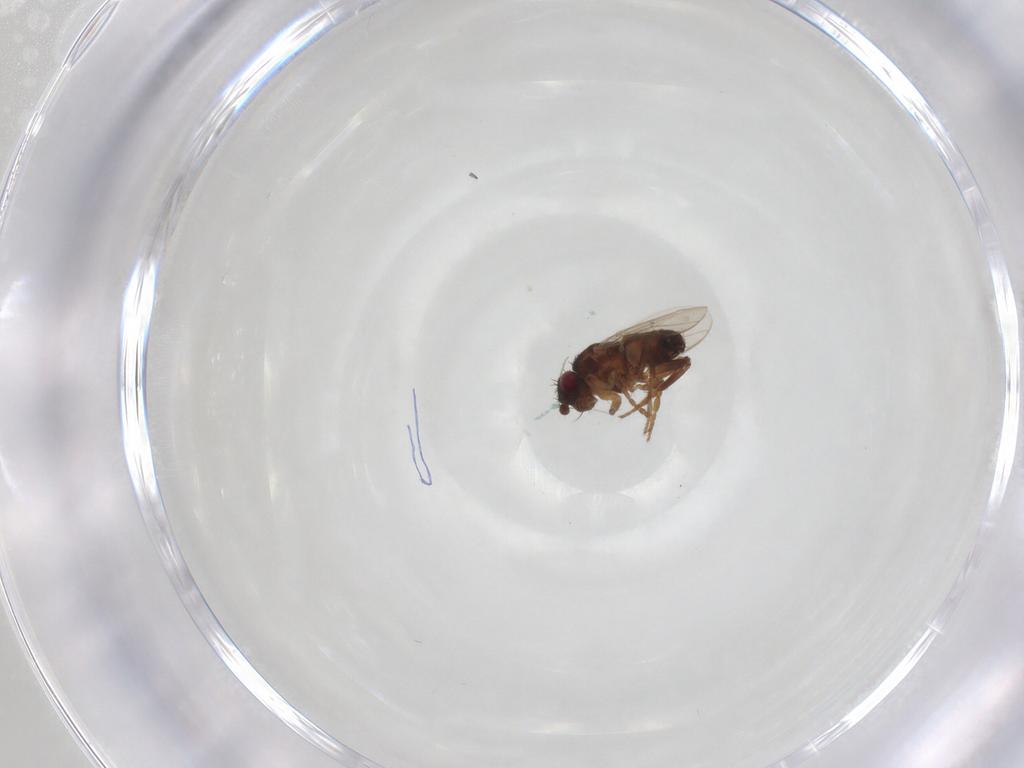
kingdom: Animalia
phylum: Arthropoda
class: Insecta
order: Diptera
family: Sphaeroceridae
